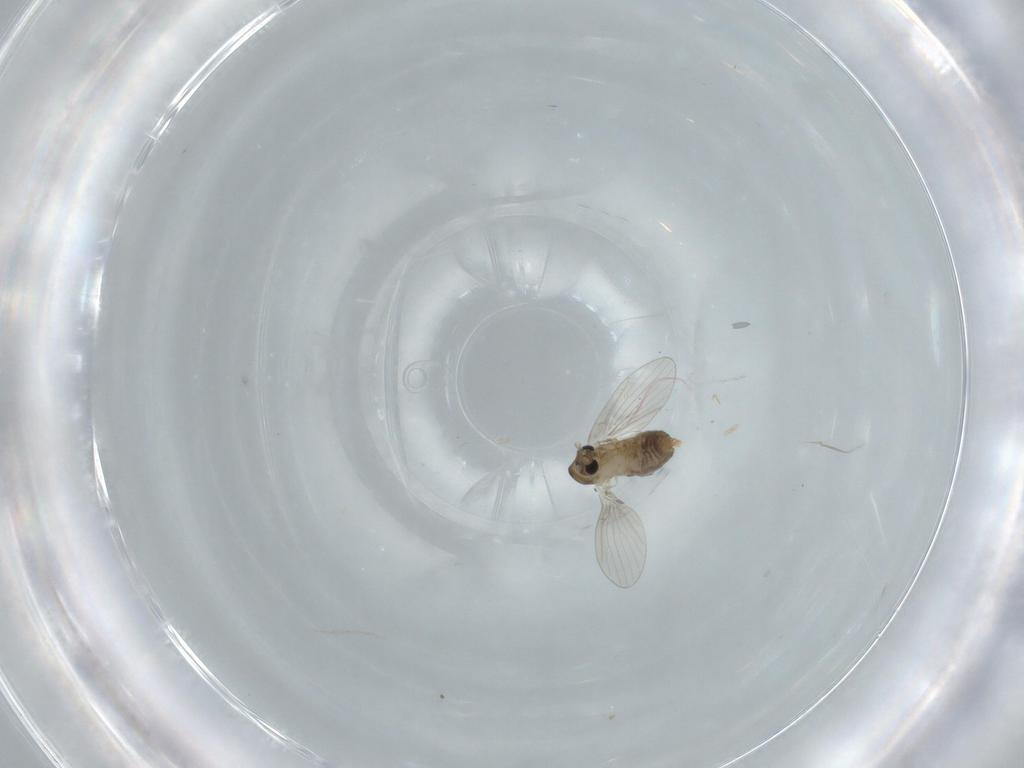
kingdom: Animalia
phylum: Arthropoda
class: Insecta
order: Diptera
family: Psychodidae
